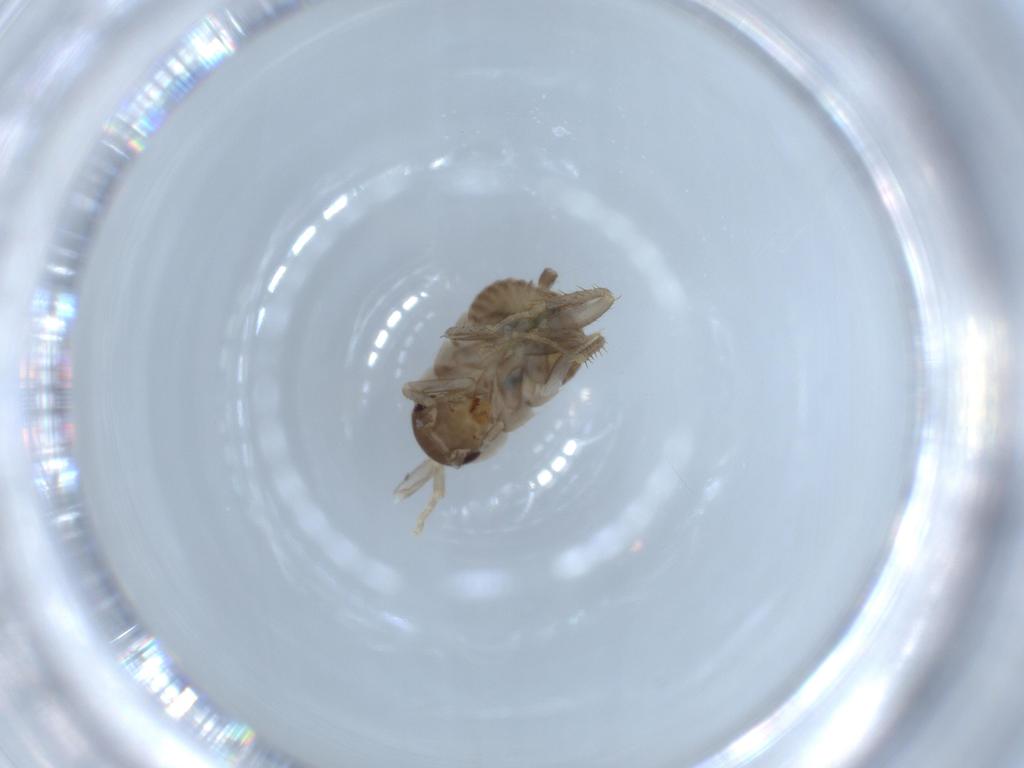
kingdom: Animalia
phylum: Arthropoda
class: Insecta
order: Blattodea
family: Ectobiidae
